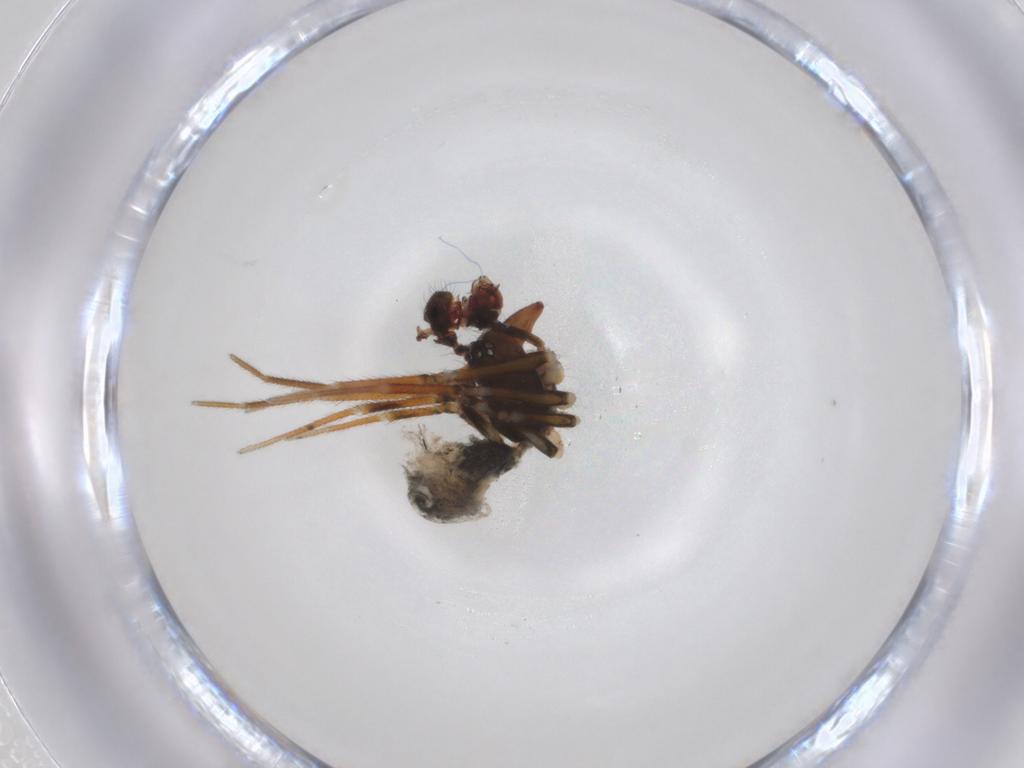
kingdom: Animalia
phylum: Arthropoda
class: Arachnida
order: Araneae
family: Linyphiidae
